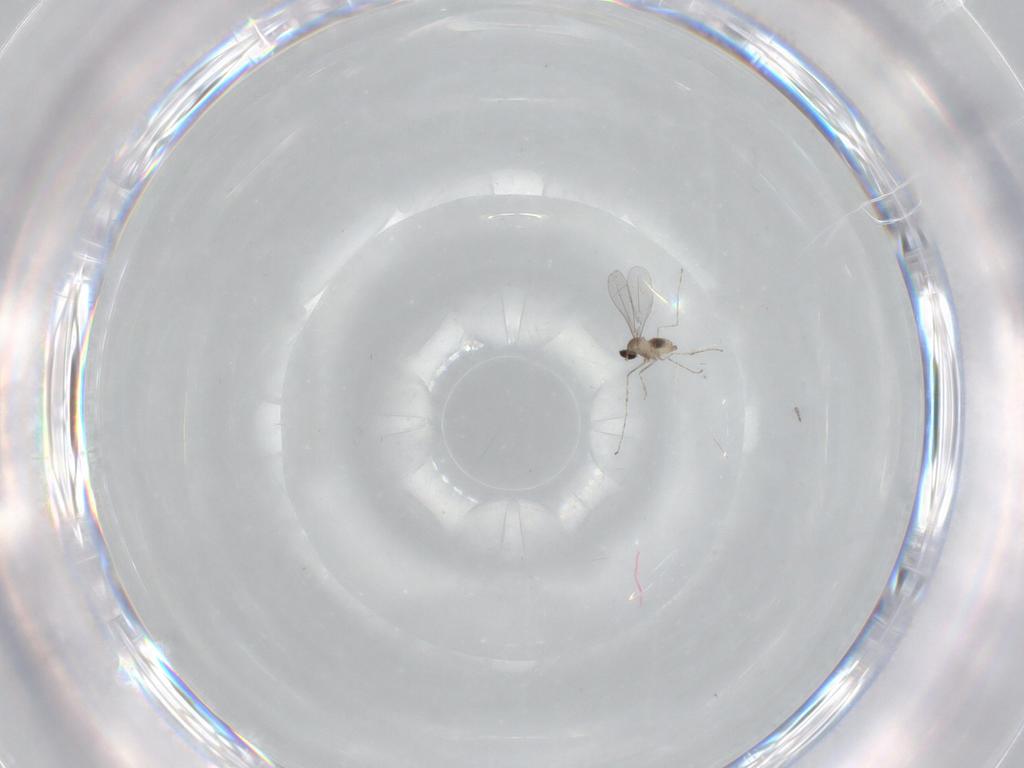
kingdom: Animalia
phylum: Arthropoda
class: Insecta
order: Diptera
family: Cecidomyiidae
